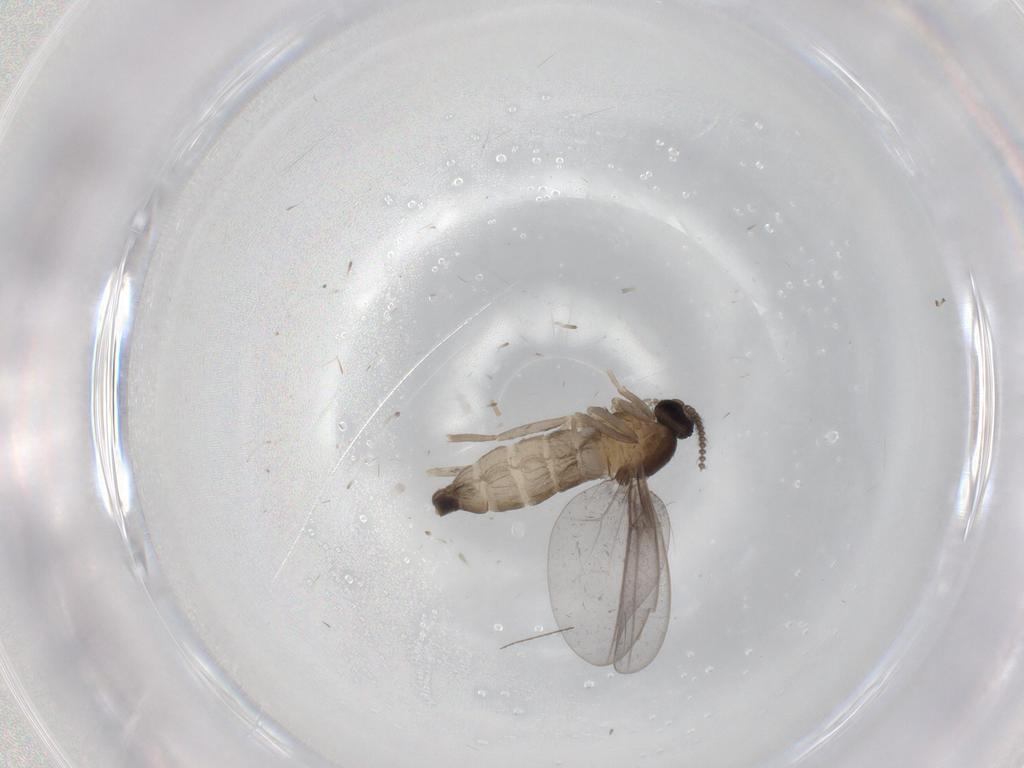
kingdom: Animalia
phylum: Arthropoda
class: Insecta
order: Diptera
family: Cecidomyiidae
